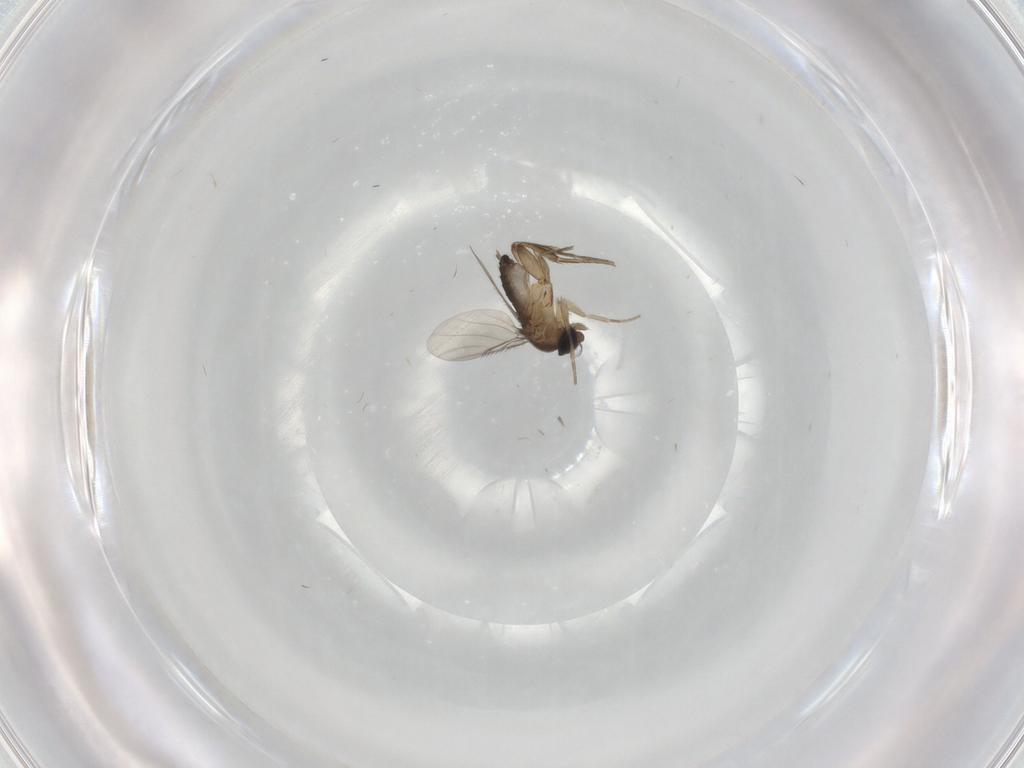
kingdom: Animalia
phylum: Arthropoda
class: Insecta
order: Diptera
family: Phoridae
